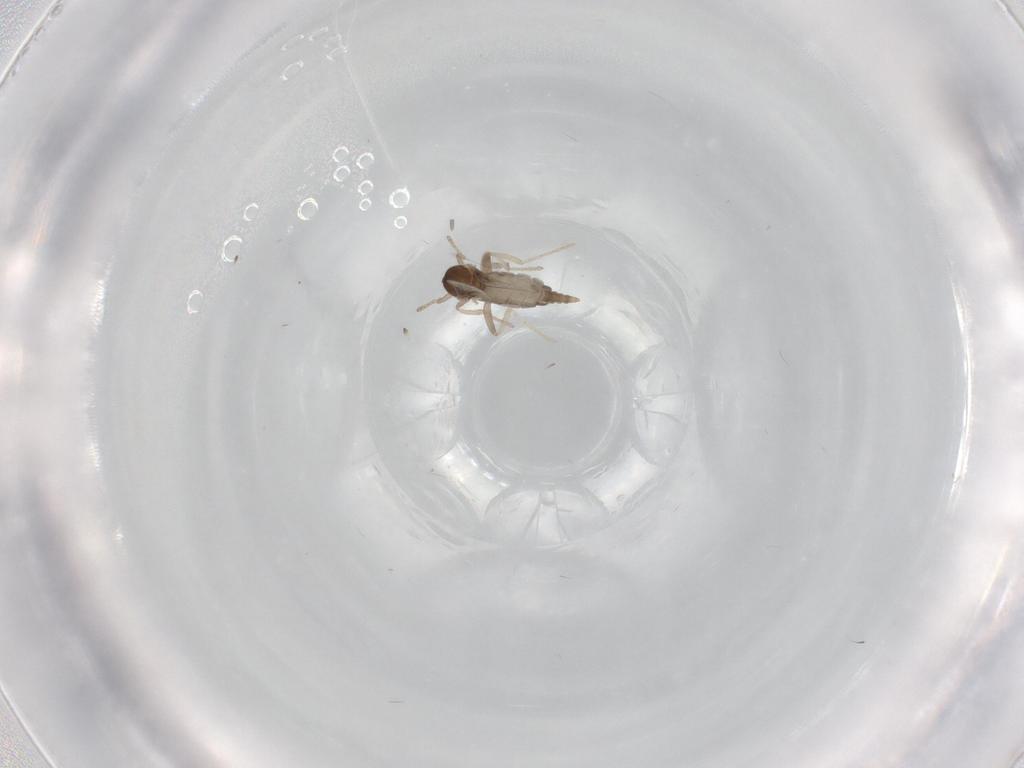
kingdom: Animalia
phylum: Arthropoda
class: Insecta
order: Diptera
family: Cecidomyiidae
